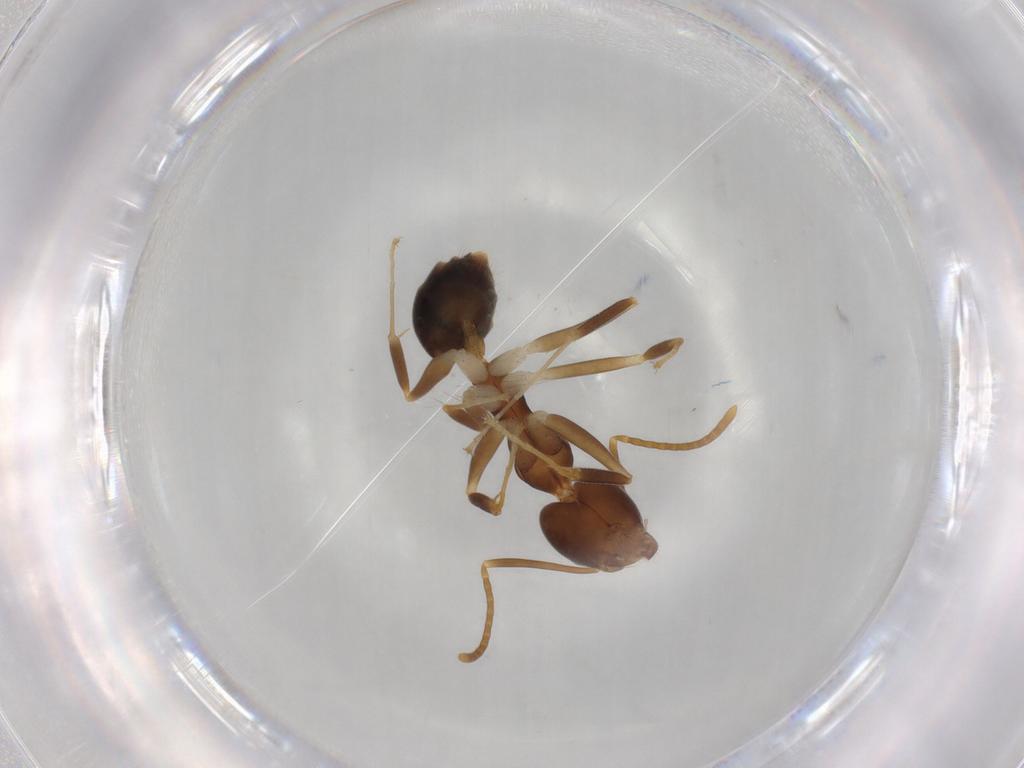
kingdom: Animalia
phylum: Arthropoda
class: Insecta
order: Hymenoptera
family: Formicidae
